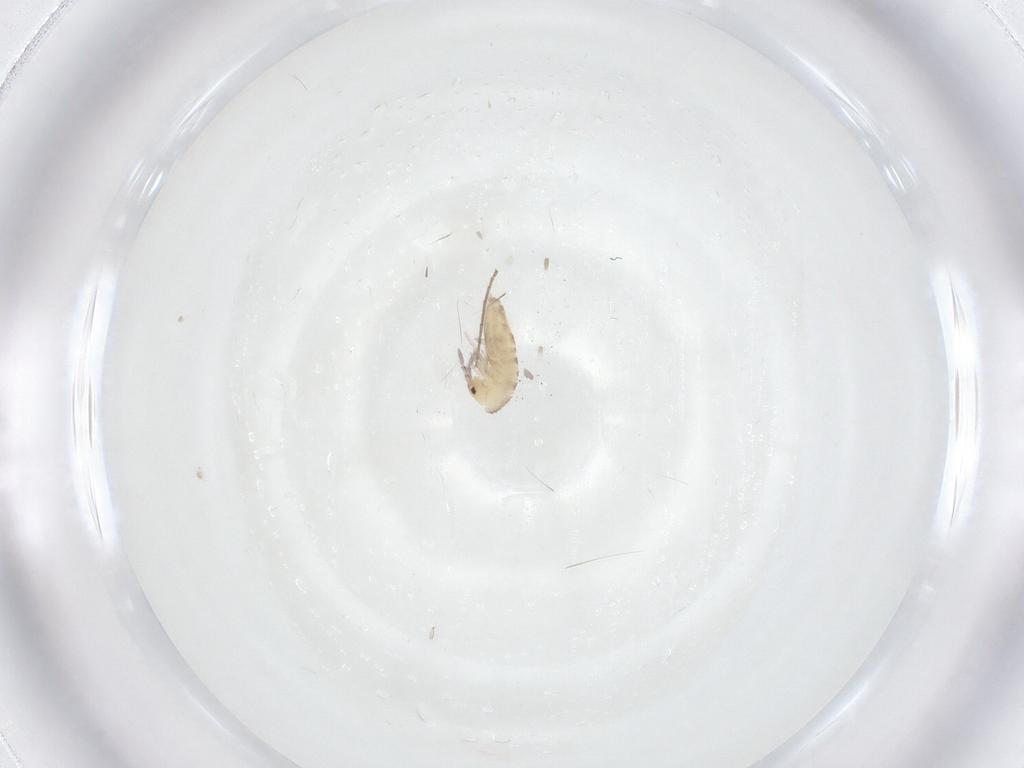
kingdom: Animalia
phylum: Arthropoda
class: Collembola
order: Entomobryomorpha
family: Entomobryidae
